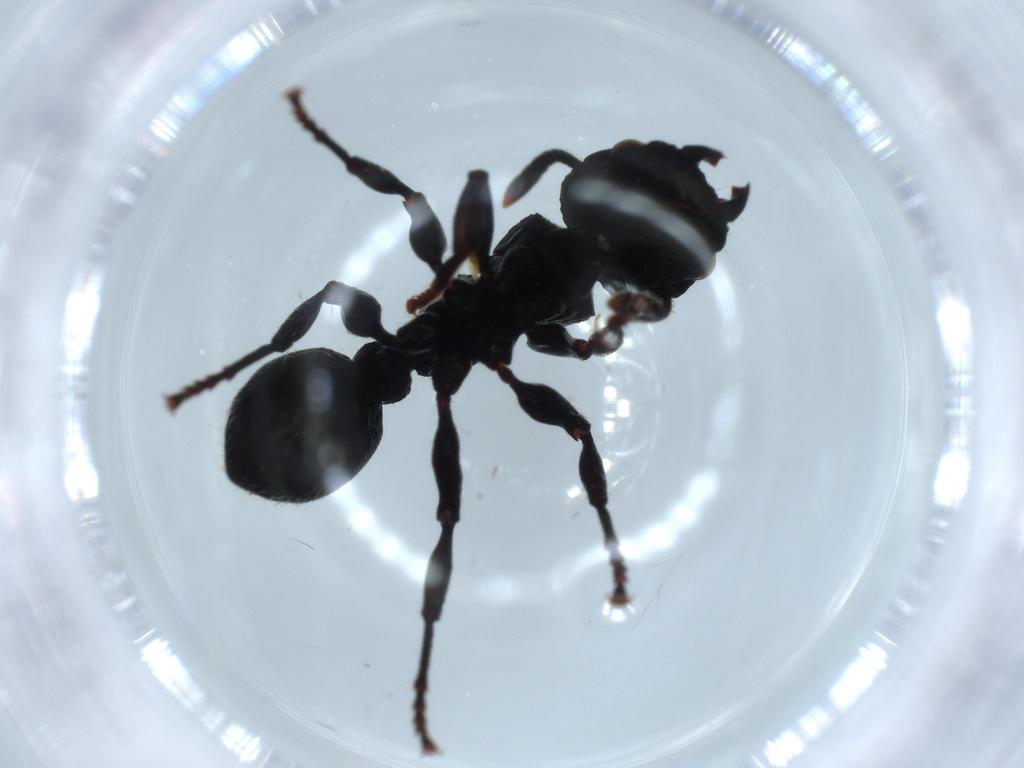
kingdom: Animalia
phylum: Arthropoda
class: Insecta
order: Hymenoptera
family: Formicidae
